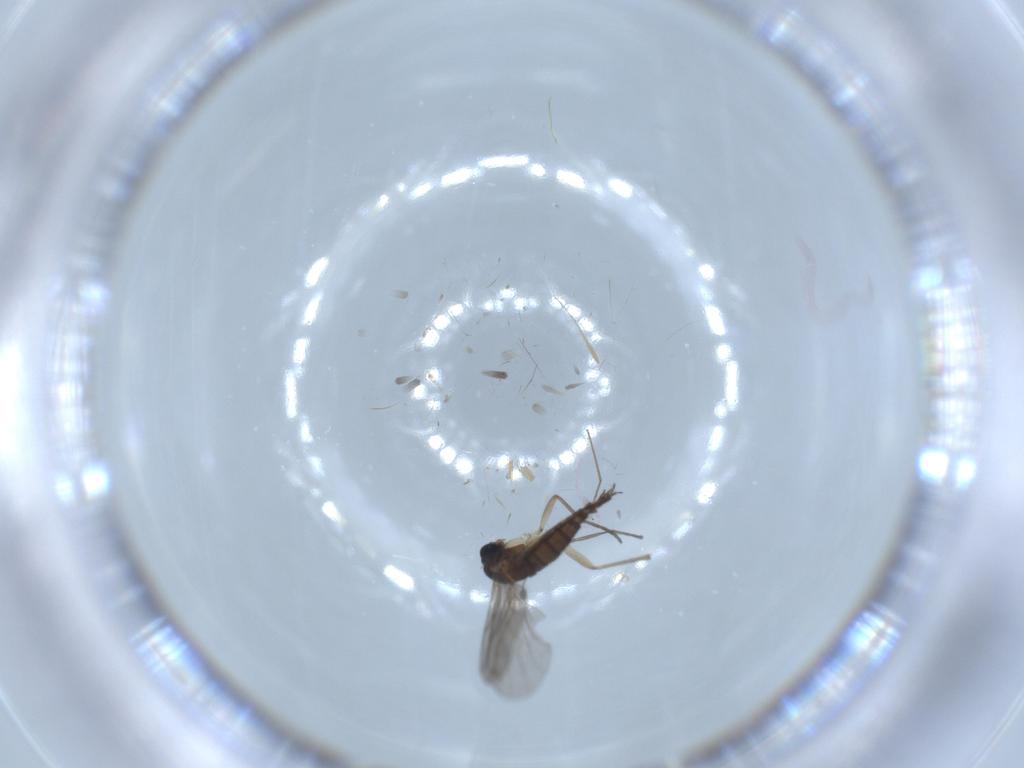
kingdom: Animalia
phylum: Arthropoda
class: Insecta
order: Diptera
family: Sciaridae
